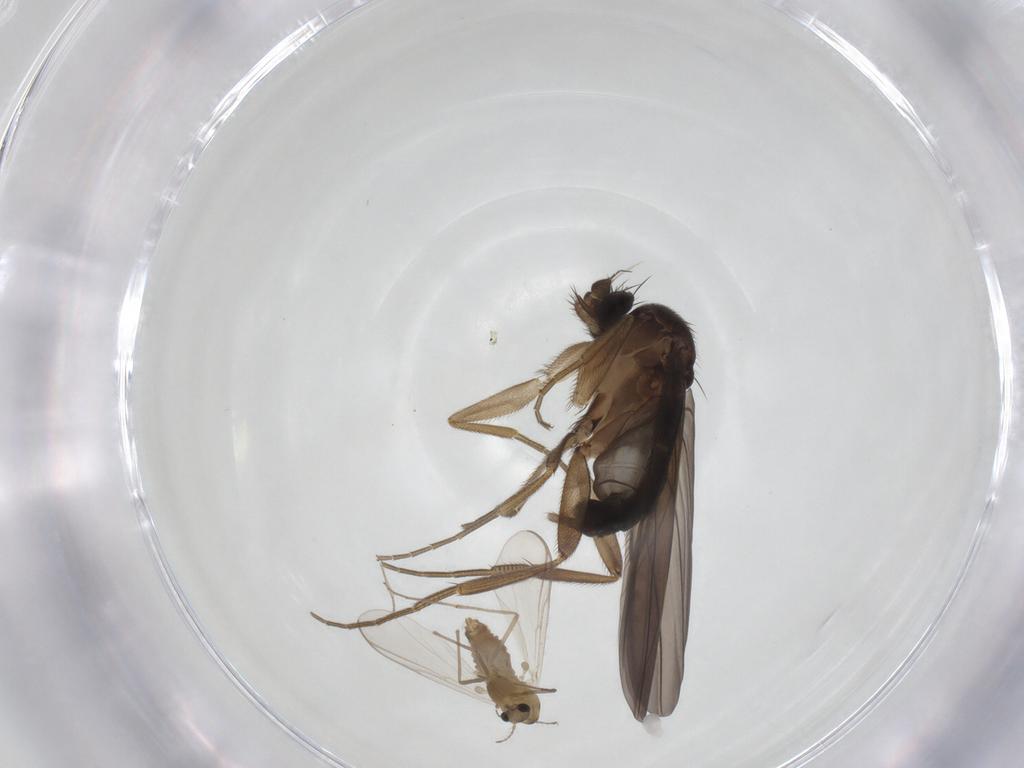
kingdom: Animalia
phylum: Arthropoda
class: Insecta
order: Diptera
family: Chironomidae
